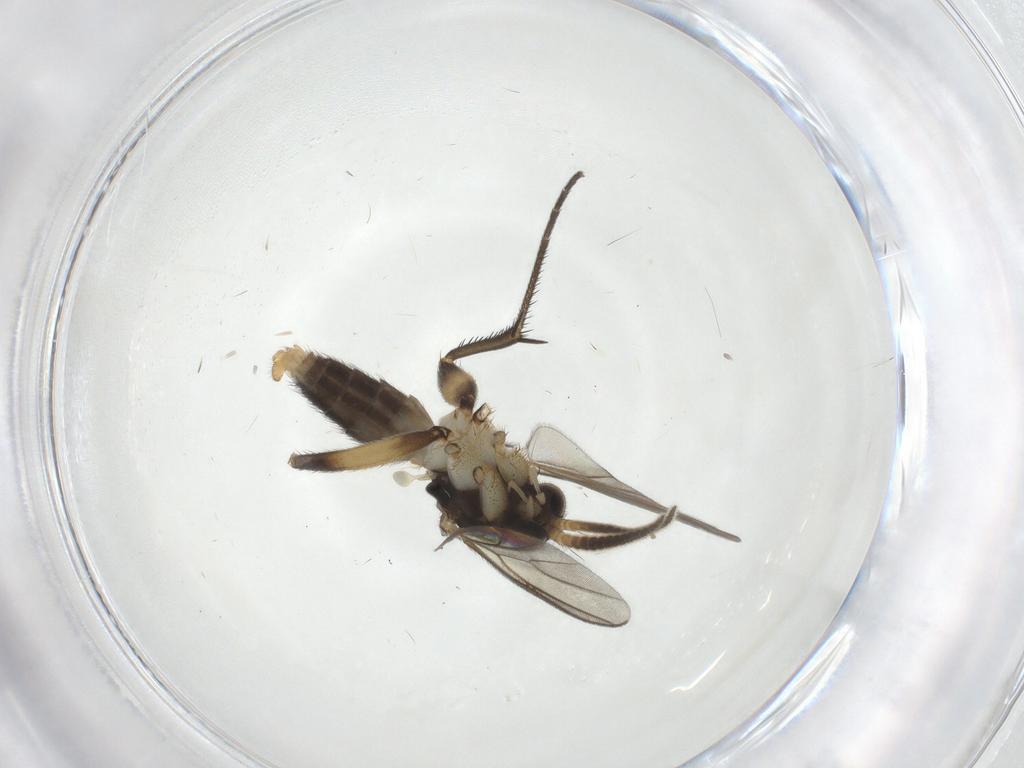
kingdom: Animalia
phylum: Arthropoda
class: Insecta
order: Diptera
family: Mycetophilidae
